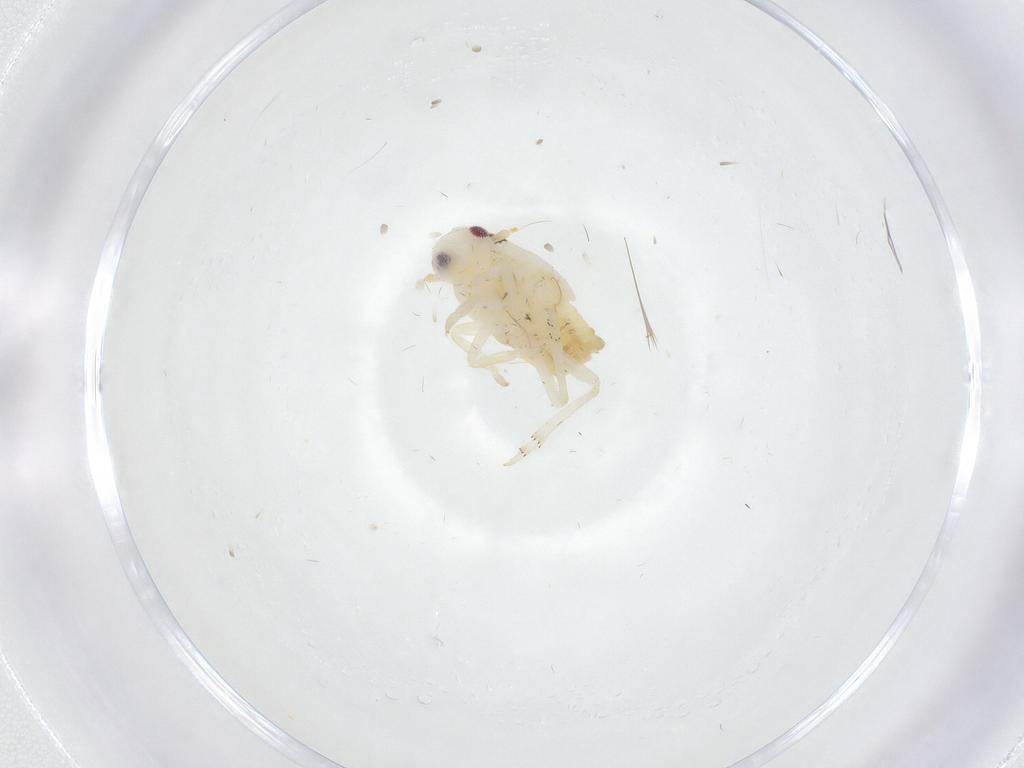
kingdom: Animalia
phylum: Arthropoda
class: Insecta
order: Hemiptera
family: Flatidae
